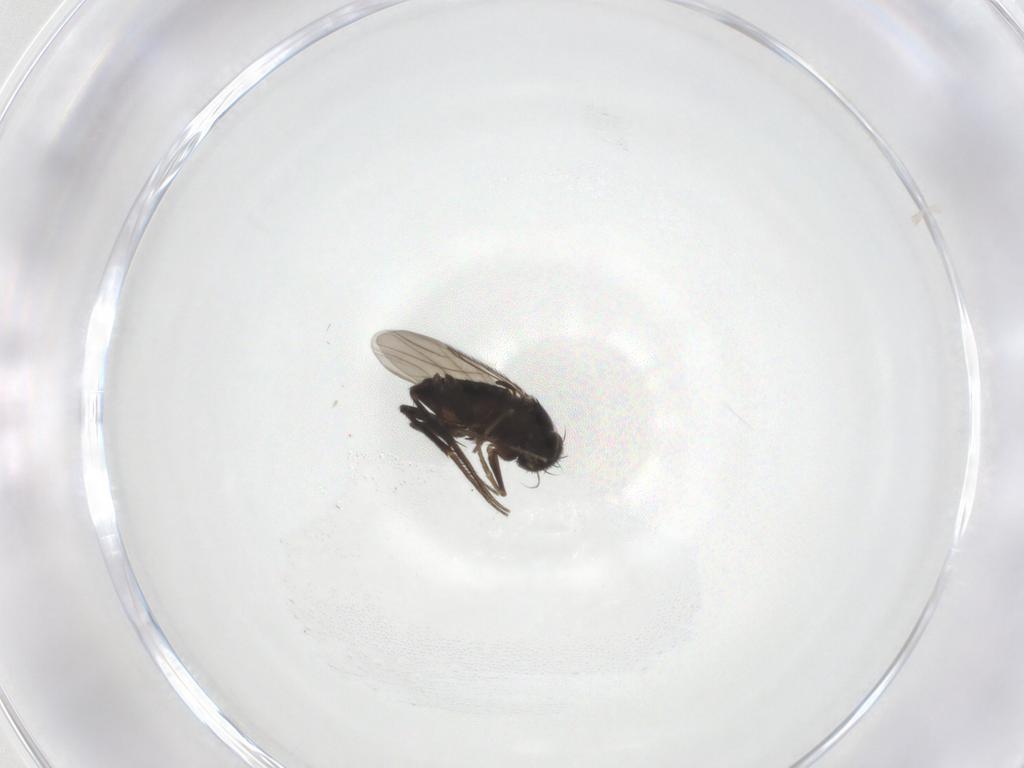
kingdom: Animalia
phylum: Arthropoda
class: Insecta
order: Diptera
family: Phoridae
